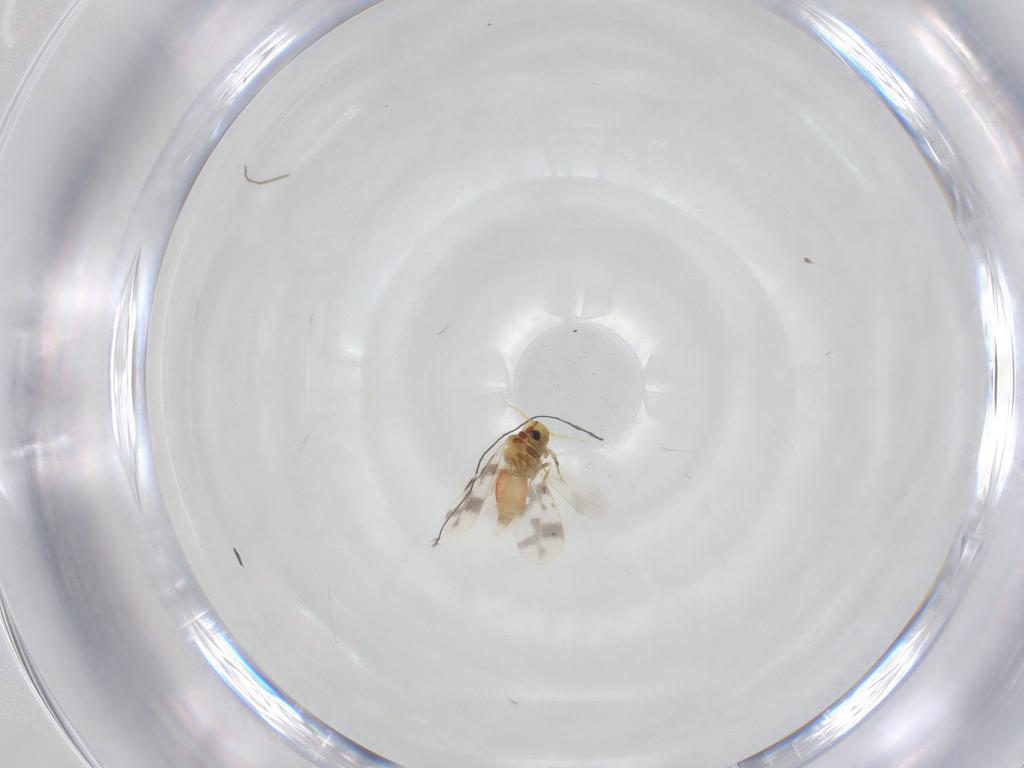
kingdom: Animalia
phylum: Arthropoda
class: Insecta
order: Hemiptera
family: Aleyrodidae
